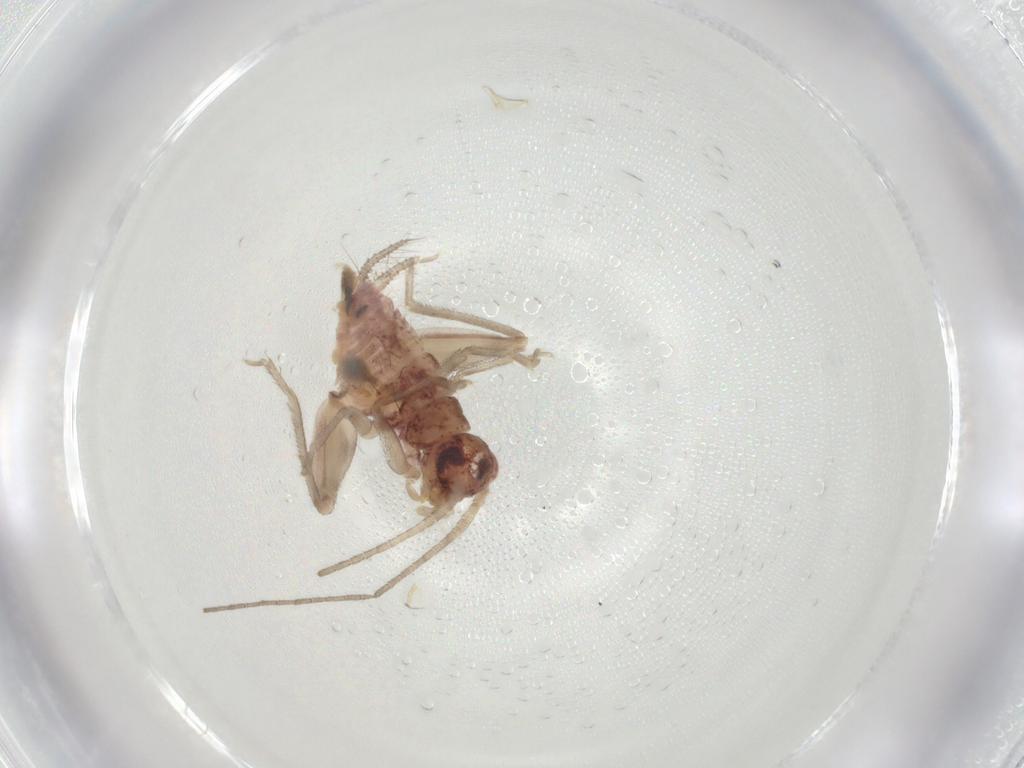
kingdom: Animalia
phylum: Arthropoda
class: Insecta
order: Orthoptera
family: Trigonidiidae
